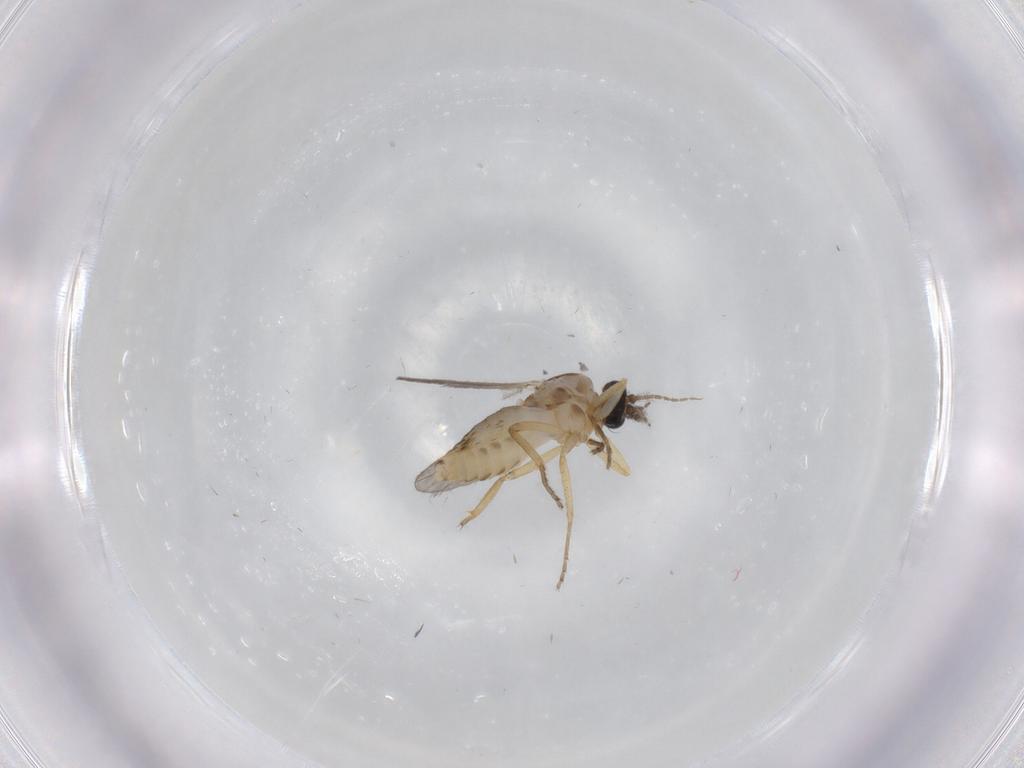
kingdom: Animalia
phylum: Arthropoda
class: Insecta
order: Diptera
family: Ceratopogonidae
